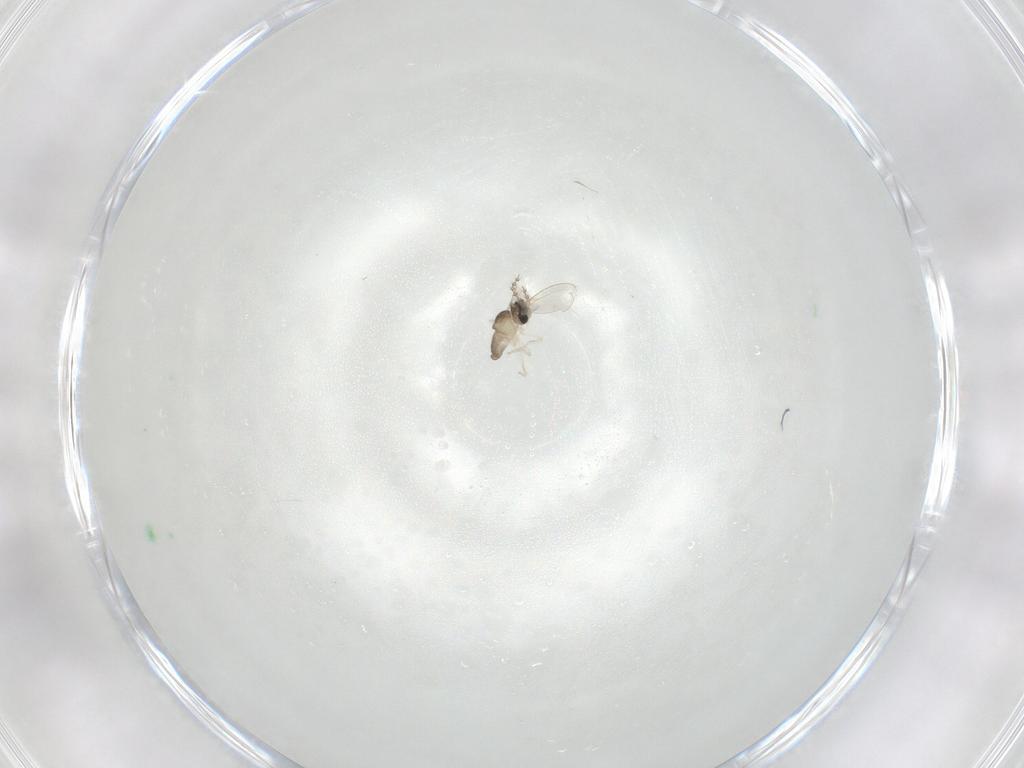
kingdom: Animalia
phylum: Arthropoda
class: Insecta
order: Diptera
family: Cecidomyiidae
